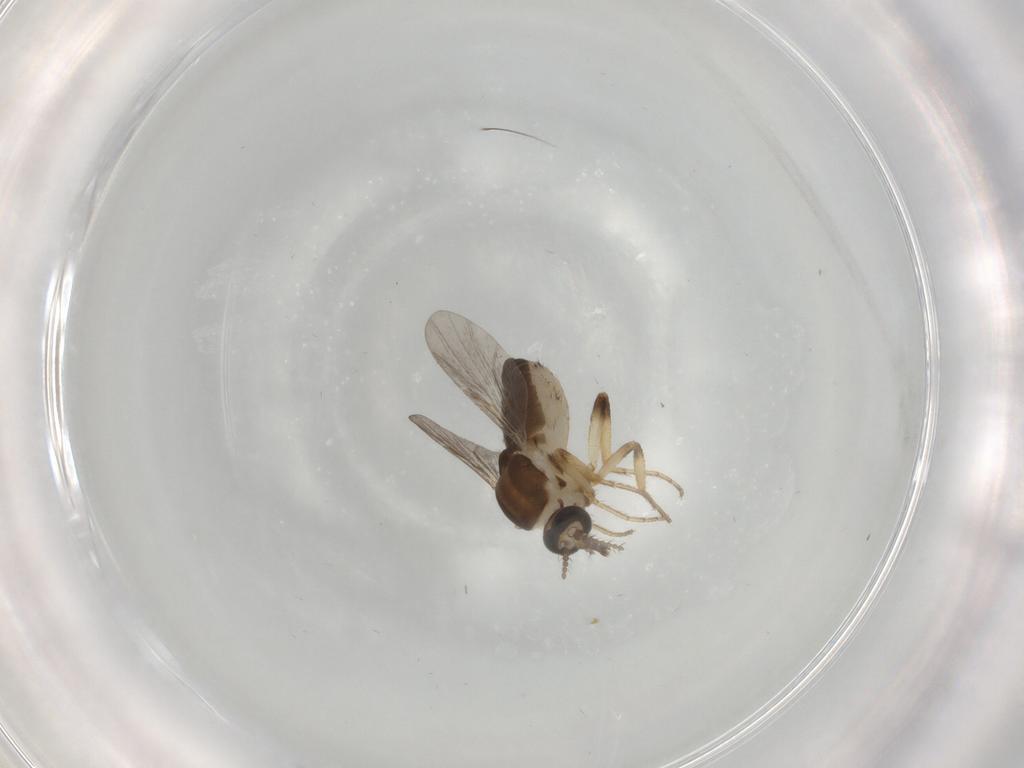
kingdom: Animalia
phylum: Arthropoda
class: Insecta
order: Diptera
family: Ceratopogonidae
